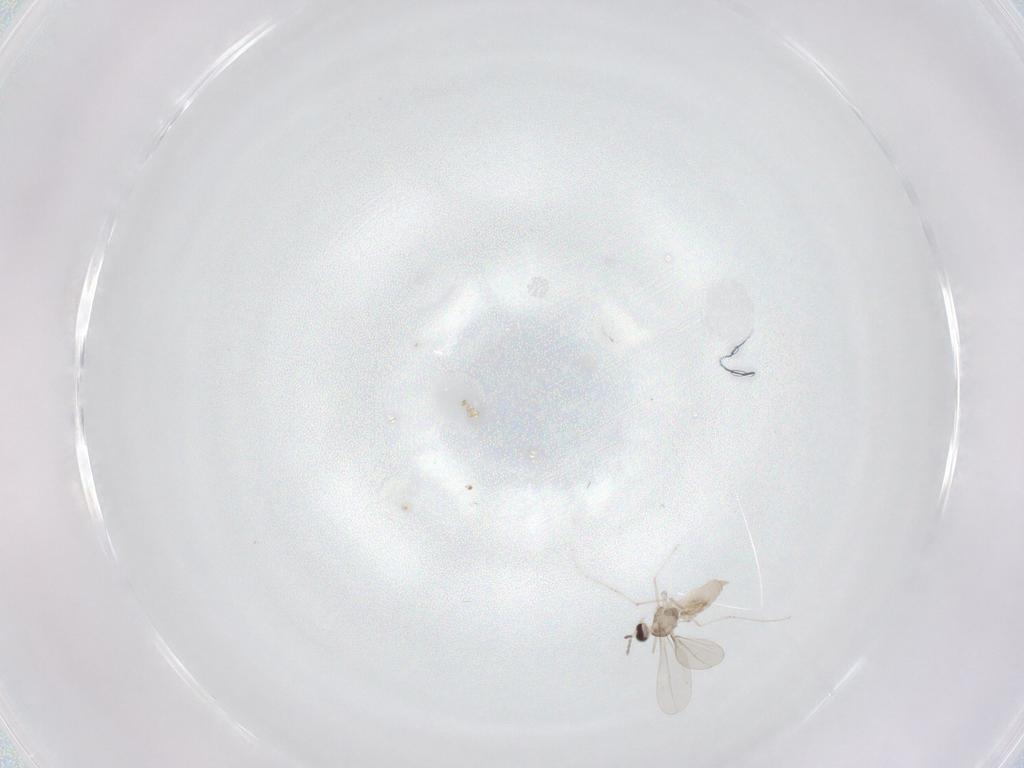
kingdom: Animalia
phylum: Arthropoda
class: Insecta
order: Diptera
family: Cecidomyiidae
